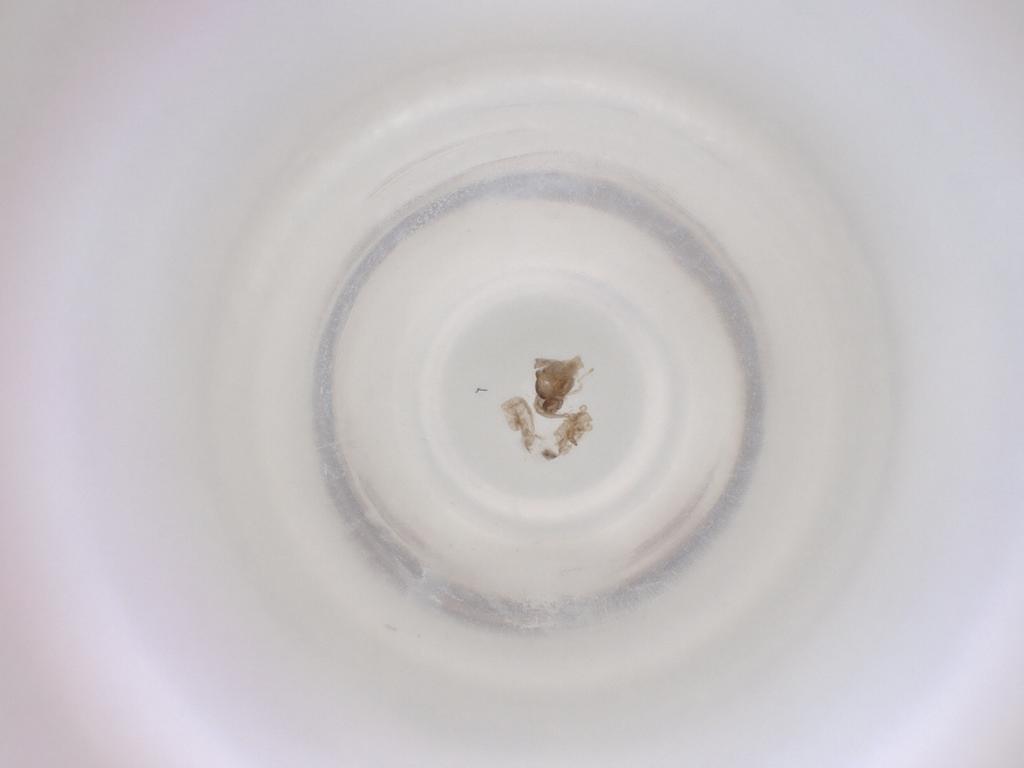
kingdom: Animalia
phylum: Arthropoda
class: Insecta
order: Diptera
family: Cecidomyiidae
